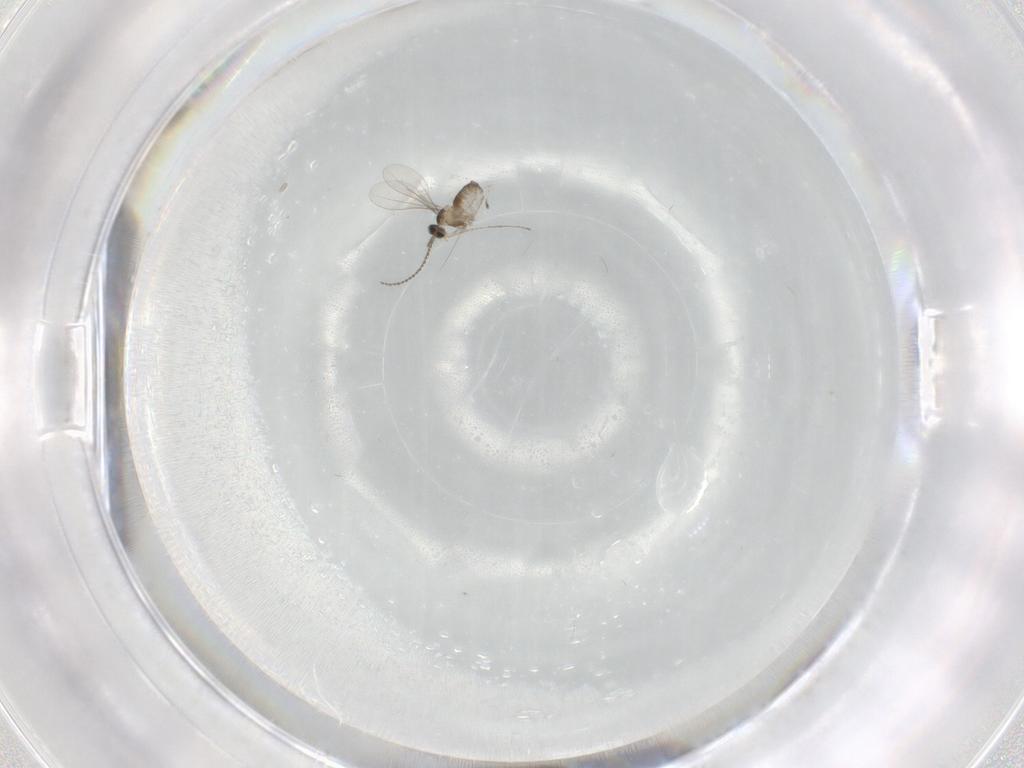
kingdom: Animalia
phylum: Arthropoda
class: Insecta
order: Diptera
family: Cecidomyiidae
